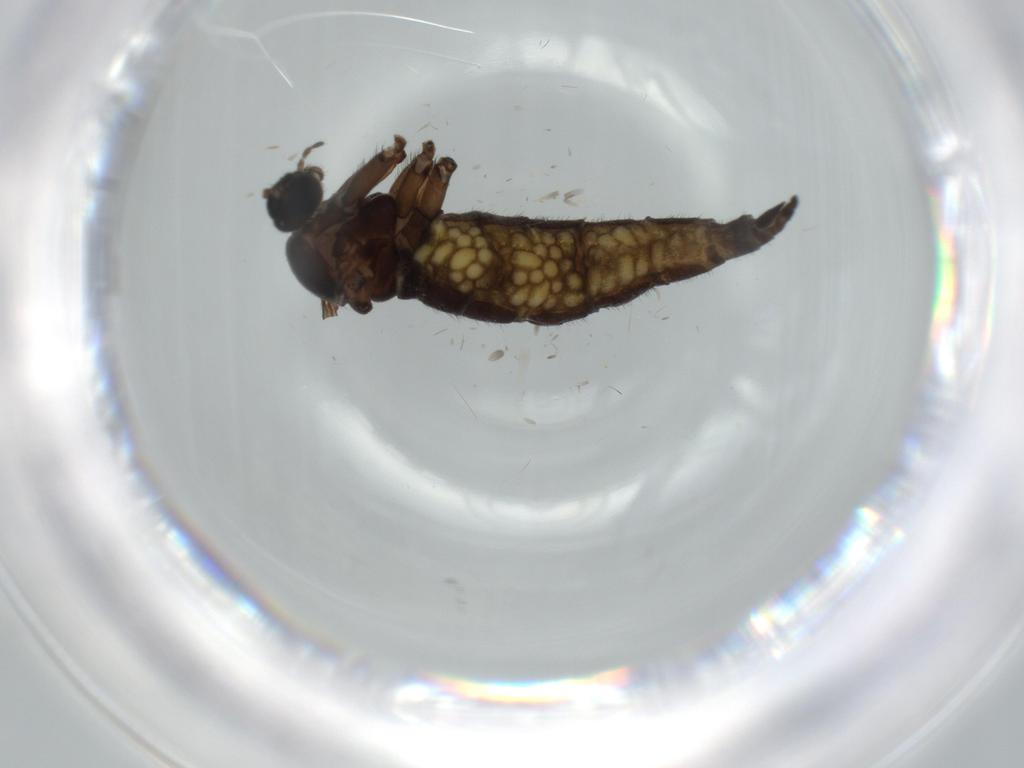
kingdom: Animalia
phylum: Arthropoda
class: Insecta
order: Diptera
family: Sciaridae
